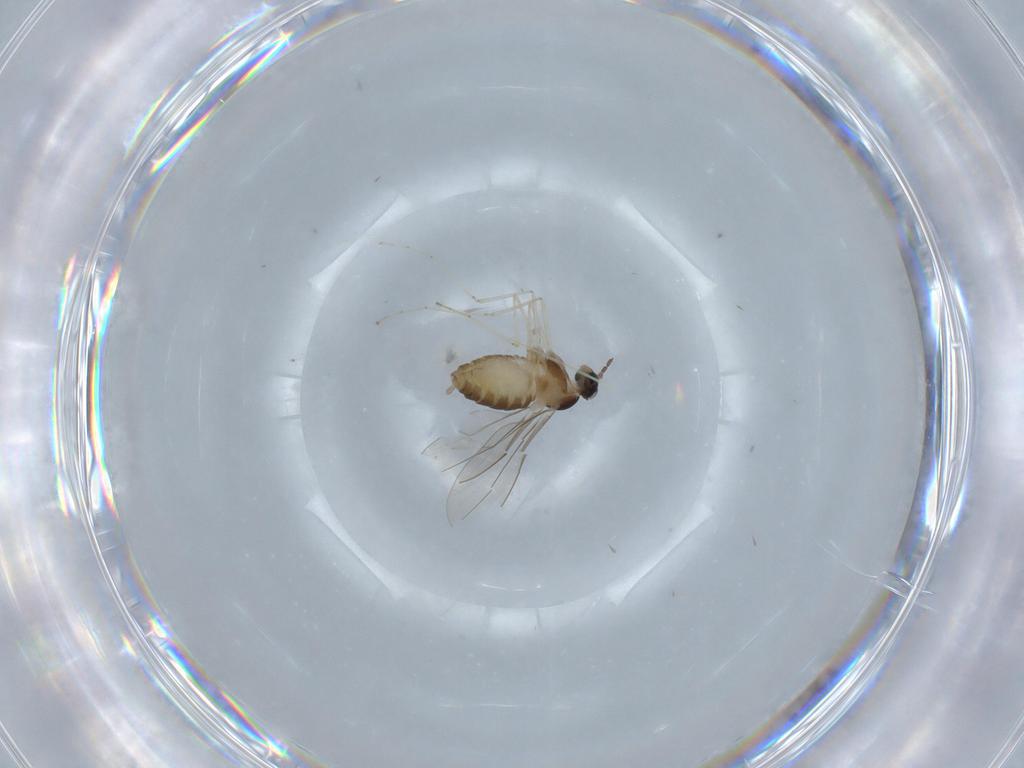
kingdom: Animalia
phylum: Arthropoda
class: Insecta
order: Diptera
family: Cecidomyiidae
